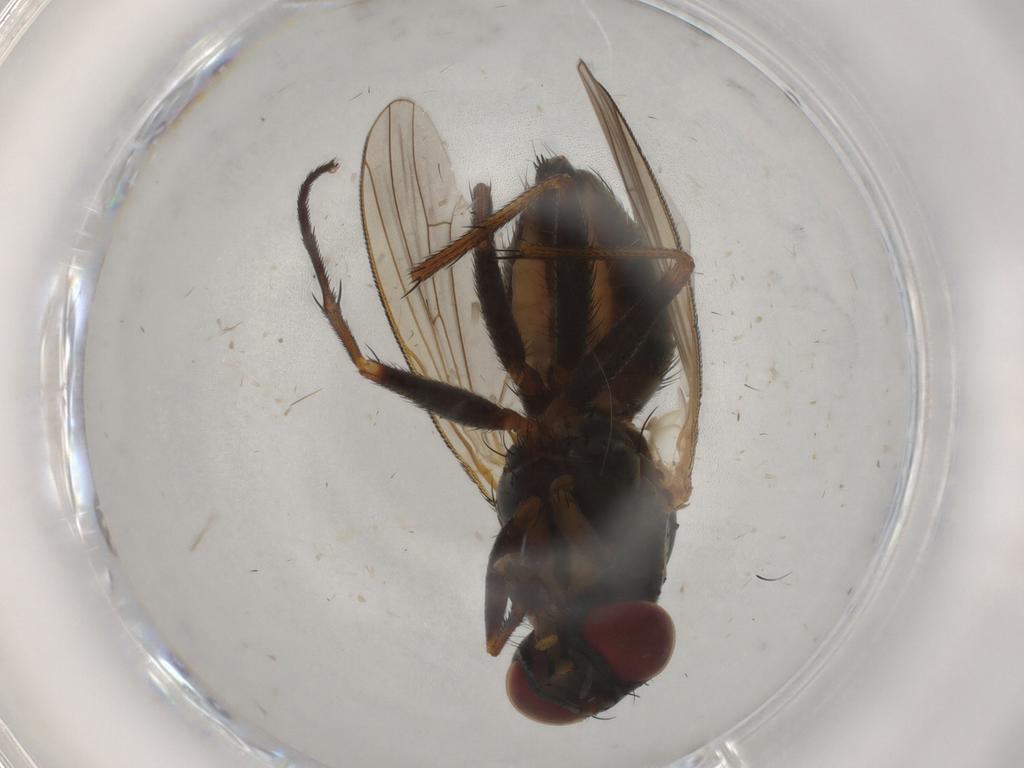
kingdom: Animalia
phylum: Arthropoda
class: Insecta
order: Diptera
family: Muscidae
